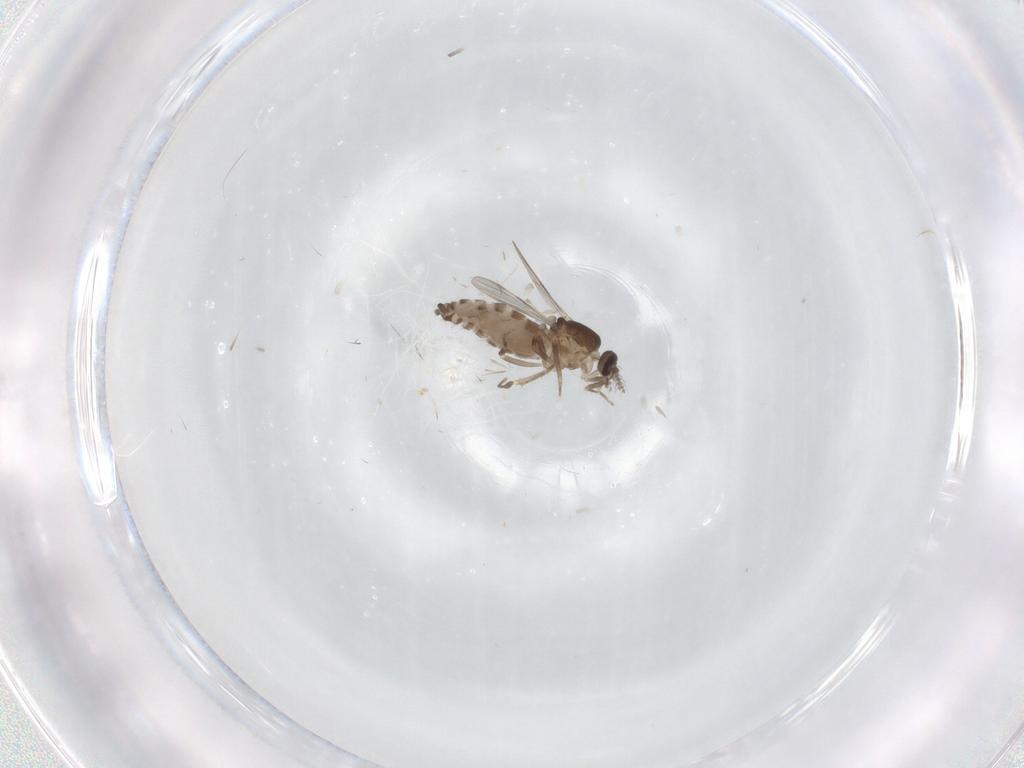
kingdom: Animalia
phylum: Arthropoda
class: Insecta
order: Diptera
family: Ceratopogonidae
